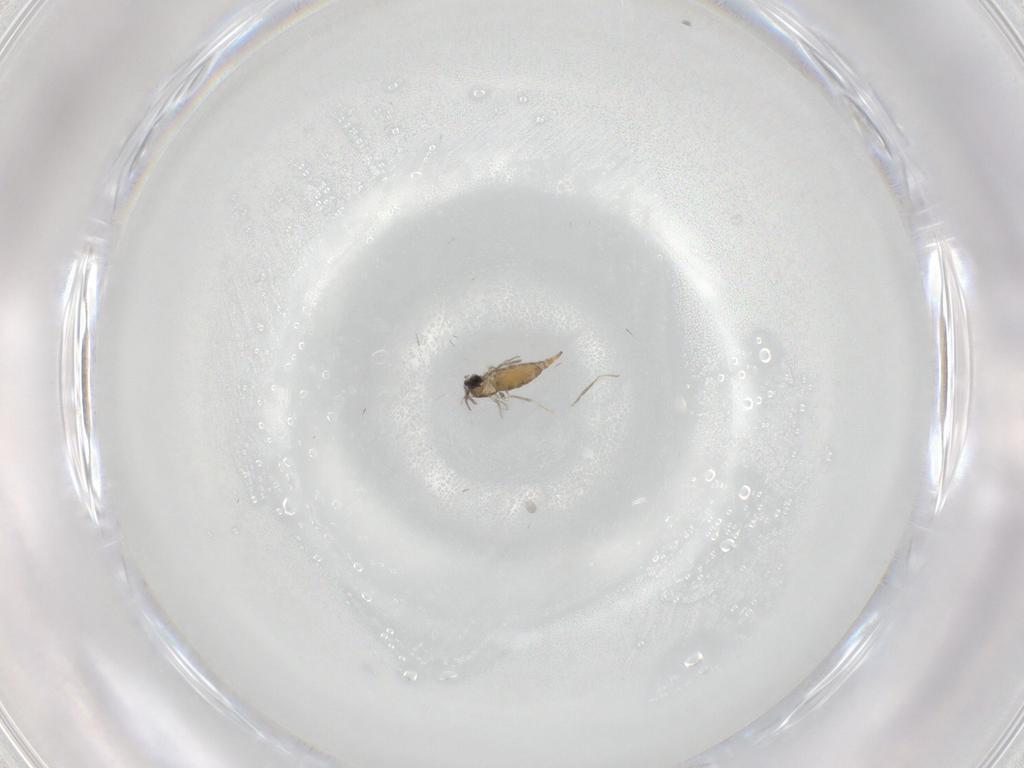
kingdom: Animalia
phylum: Arthropoda
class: Insecta
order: Diptera
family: Cecidomyiidae
